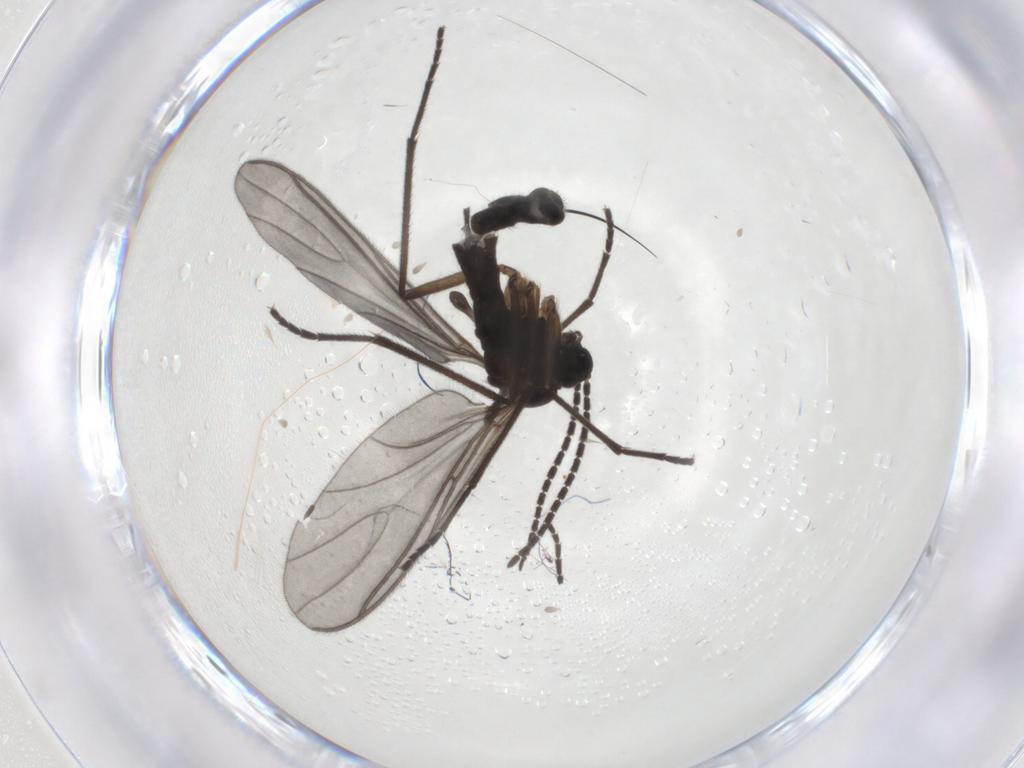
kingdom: Animalia
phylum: Arthropoda
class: Insecta
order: Diptera
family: Sciaridae
